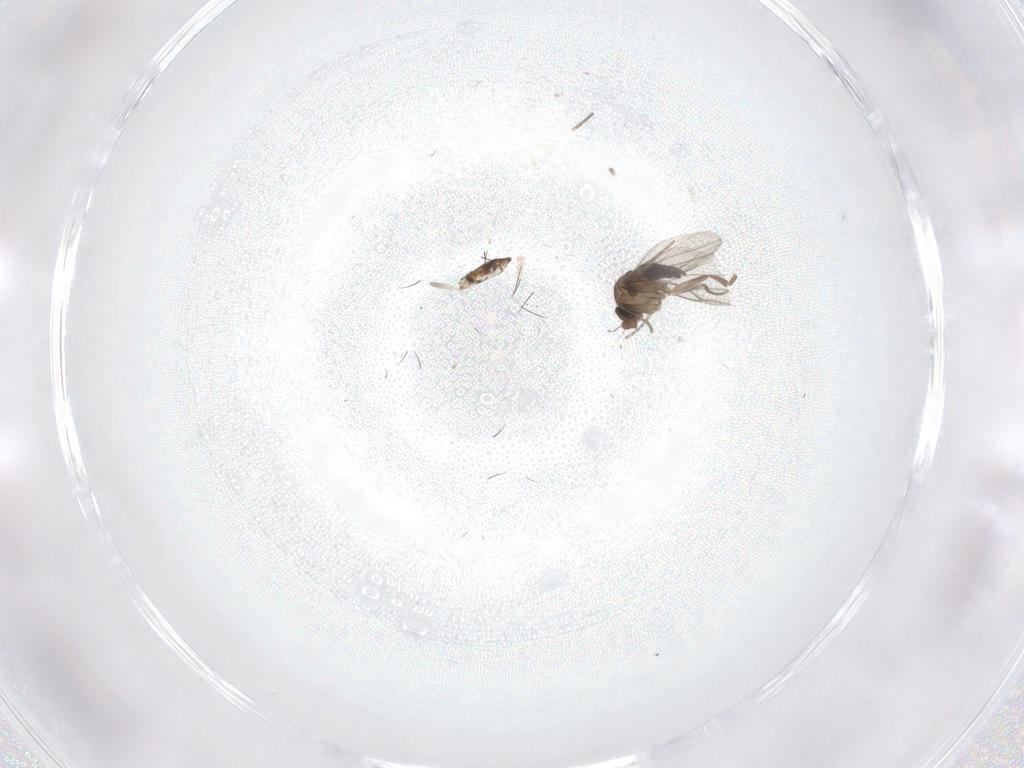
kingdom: Animalia
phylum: Arthropoda
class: Insecta
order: Diptera
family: Phoridae
